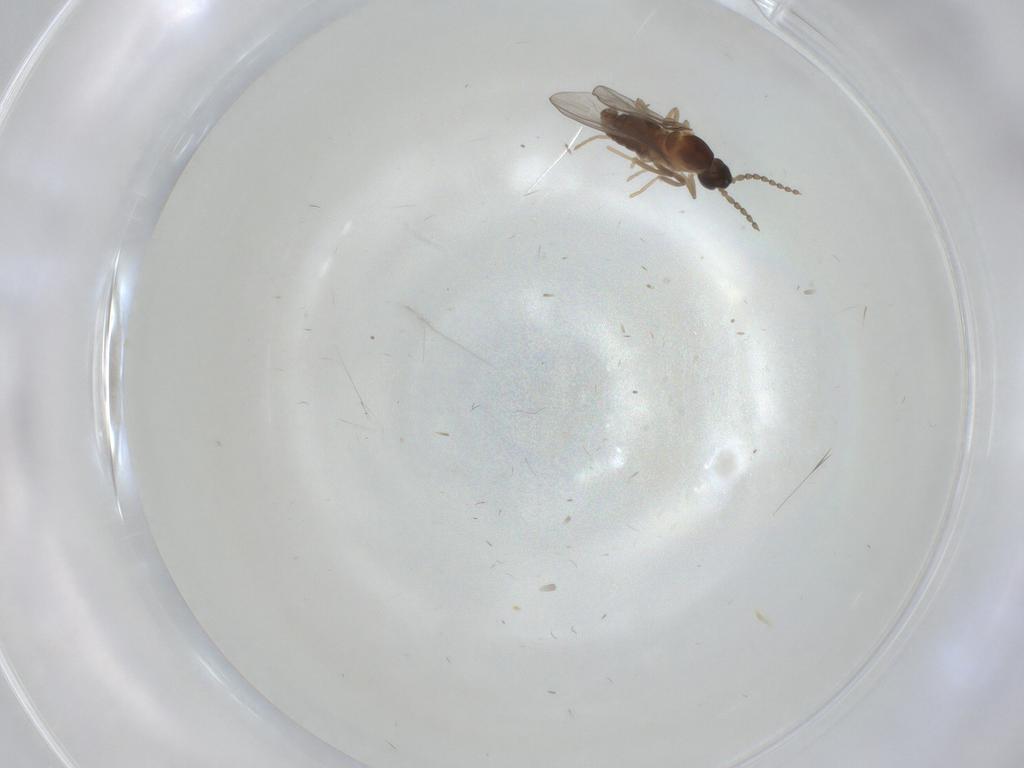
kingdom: Animalia
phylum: Arthropoda
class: Insecta
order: Diptera
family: Cecidomyiidae
